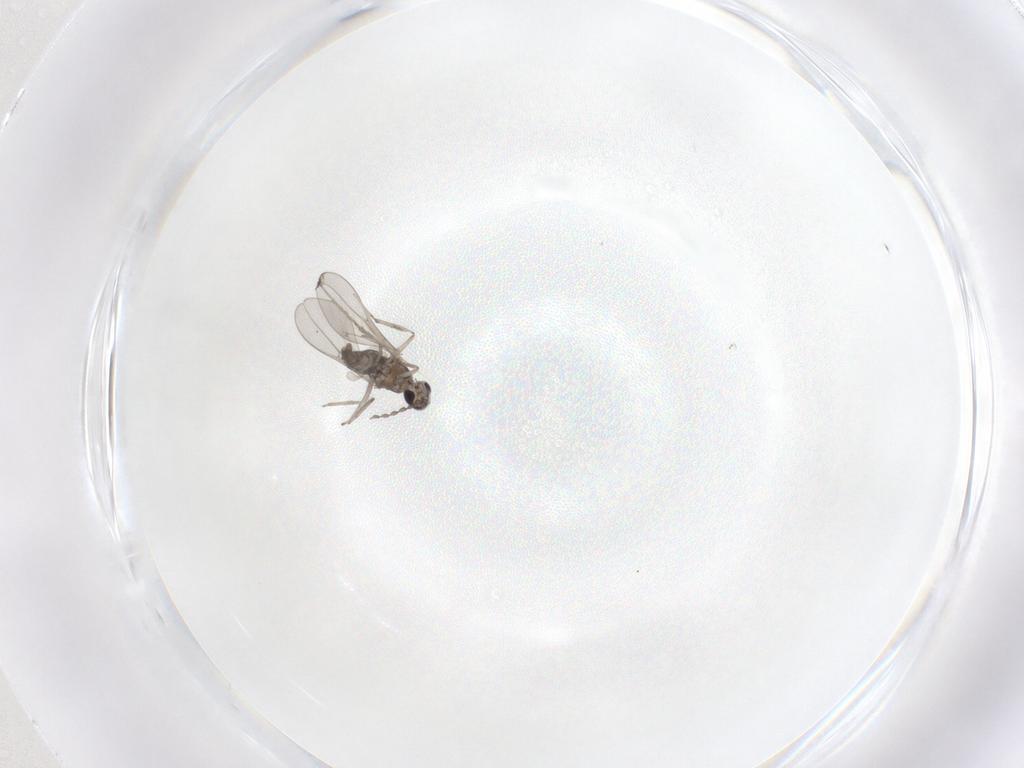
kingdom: Animalia
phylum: Arthropoda
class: Insecta
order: Diptera
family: Cecidomyiidae
